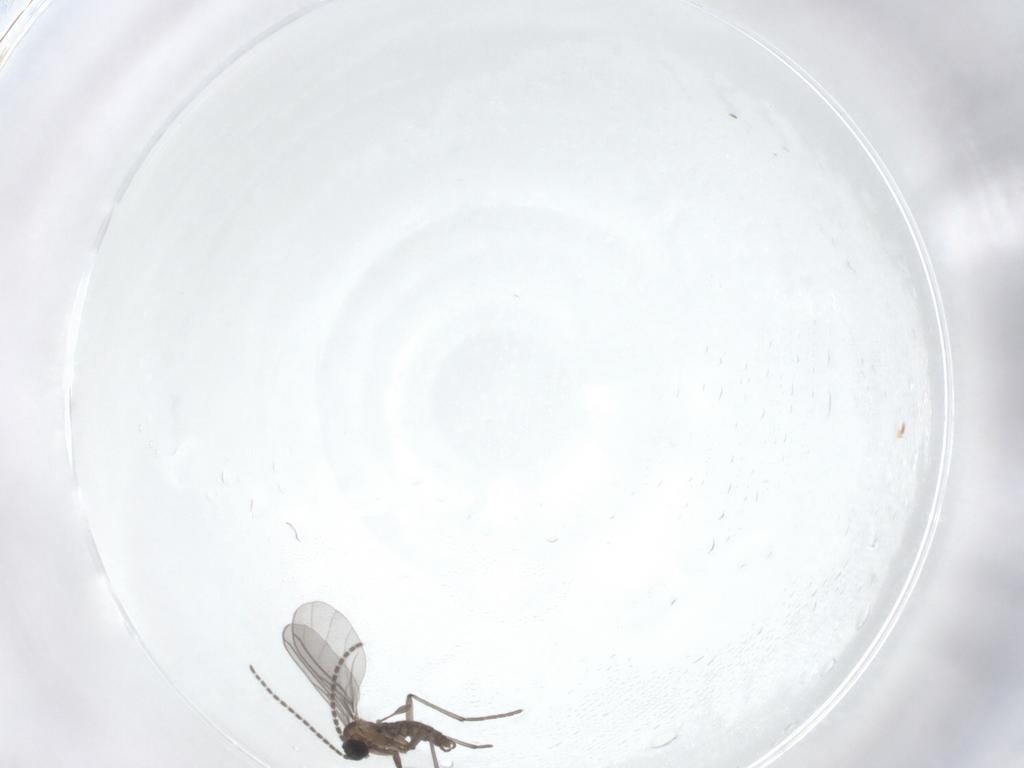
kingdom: Animalia
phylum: Arthropoda
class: Insecta
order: Diptera
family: Sciaridae
